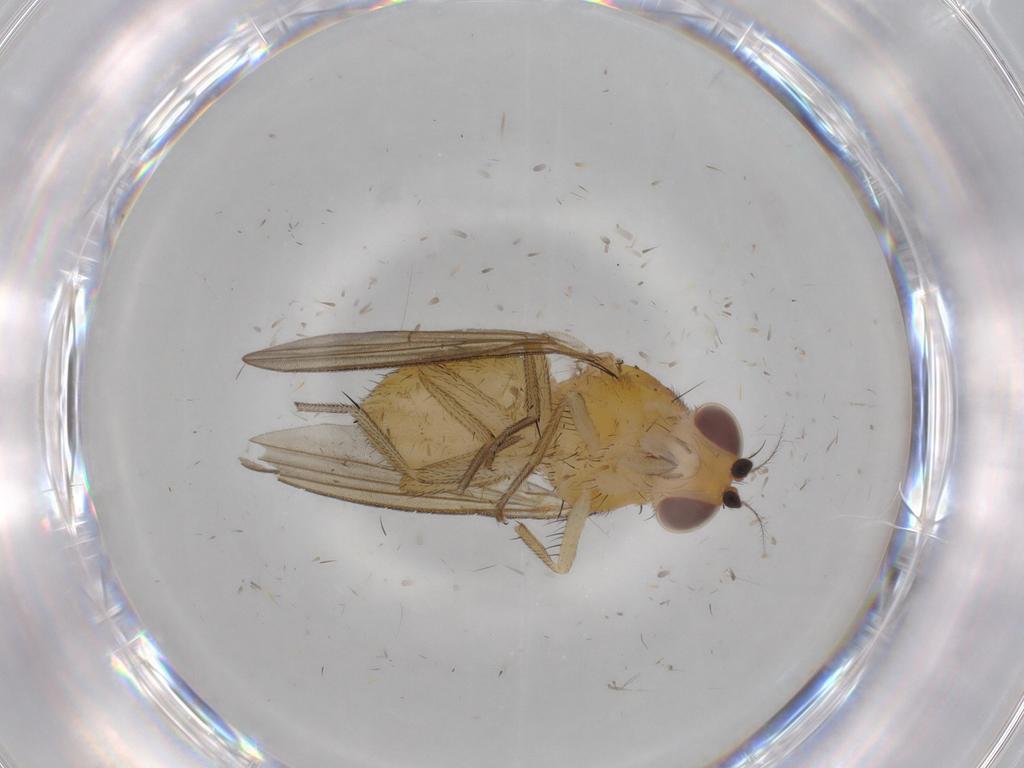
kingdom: Animalia
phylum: Arthropoda
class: Insecta
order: Diptera
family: Mycetophilidae
